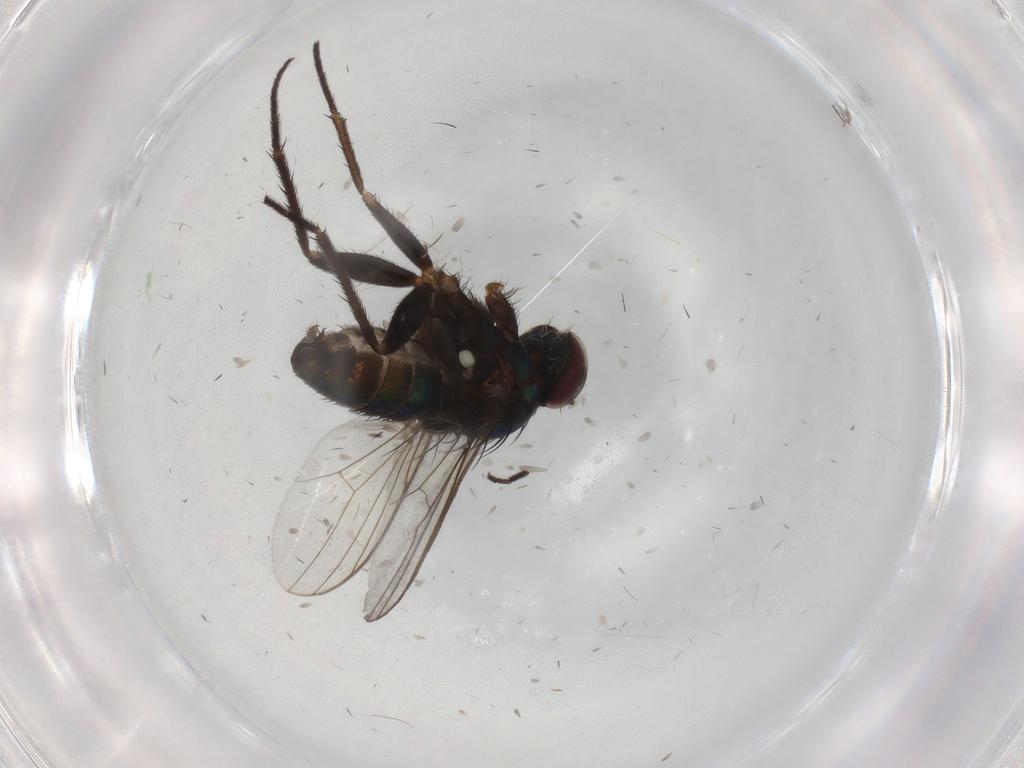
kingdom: Animalia
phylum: Arthropoda
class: Insecta
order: Diptera
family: Dolichopodidae
